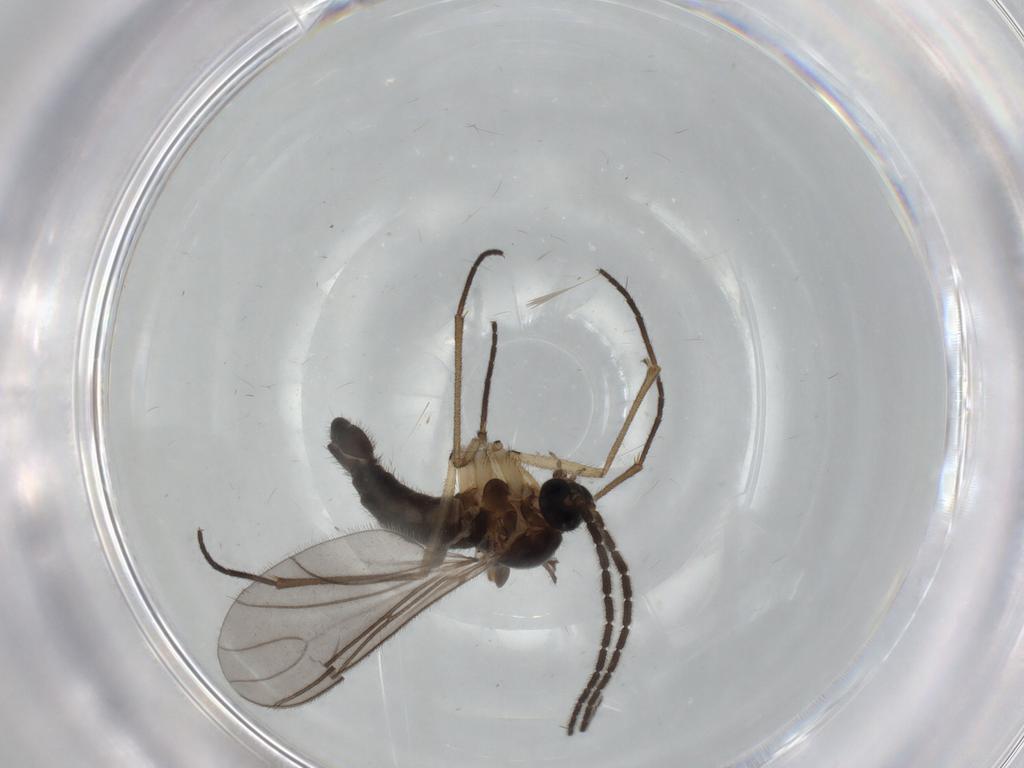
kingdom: Animalia
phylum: Arthropoda
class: Insecta
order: Diptera
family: Sciaridae
